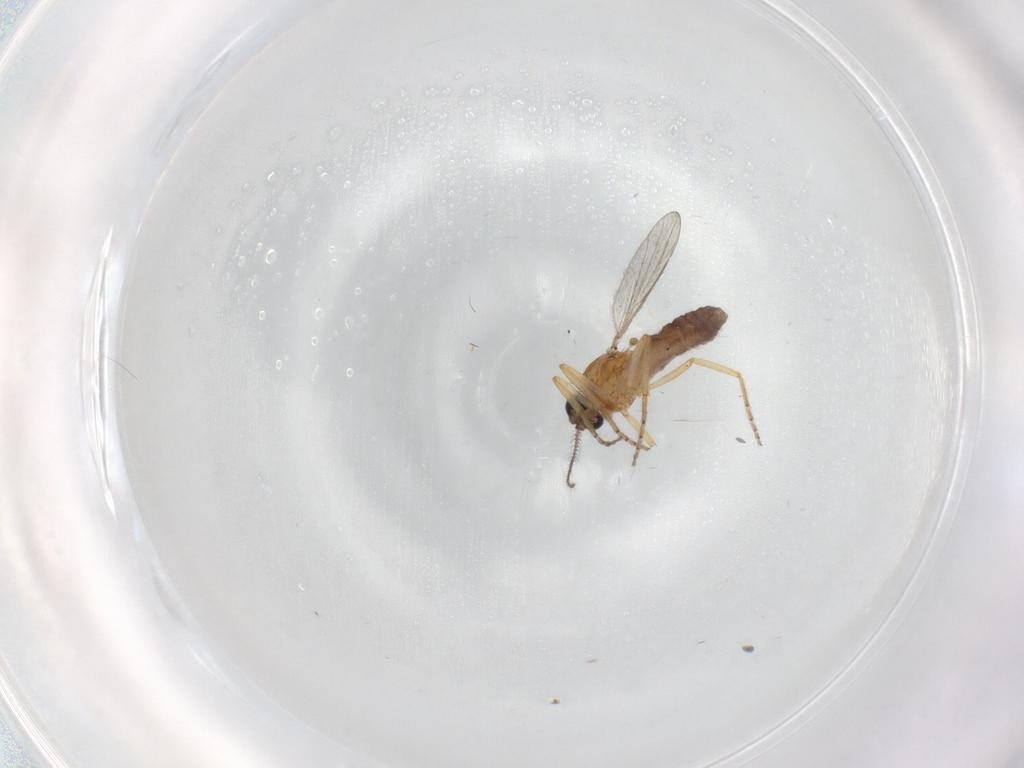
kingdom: Animalia
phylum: Arthropoda
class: Insecta
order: Diptera
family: Ceratopogonidae
